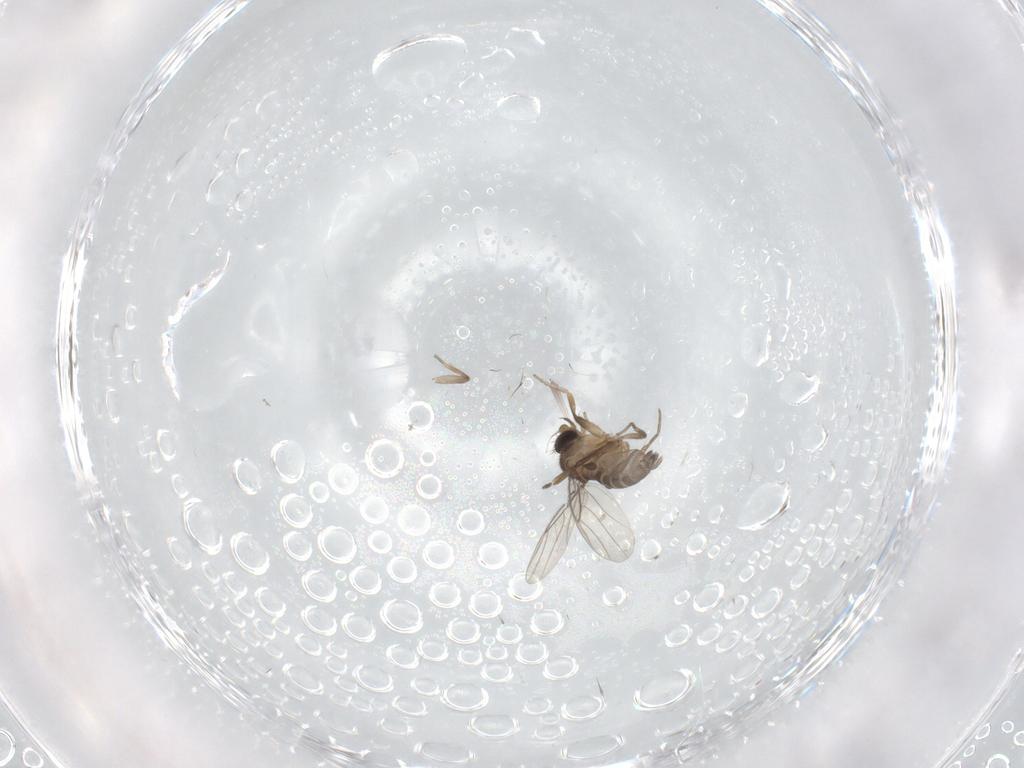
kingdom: Animalia
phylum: Arthropoda
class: Insecta
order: Diptera
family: Phoridae
